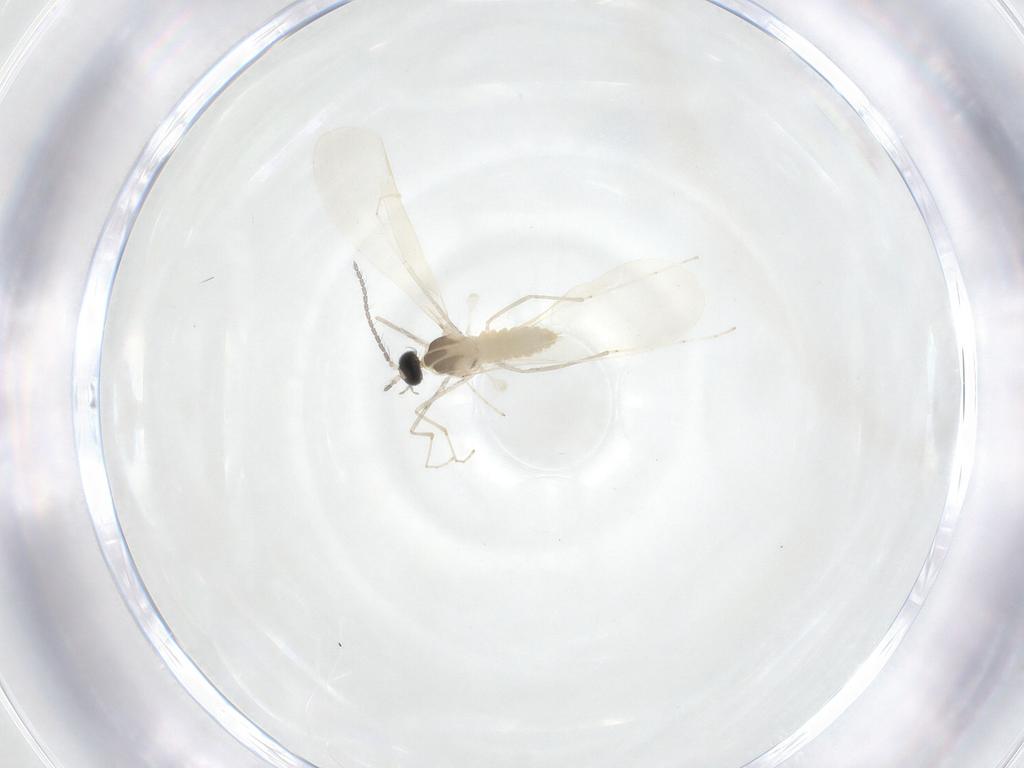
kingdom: Animalia
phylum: Arthropoda
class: Insecta
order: Diptera
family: Cecidomyiidae
